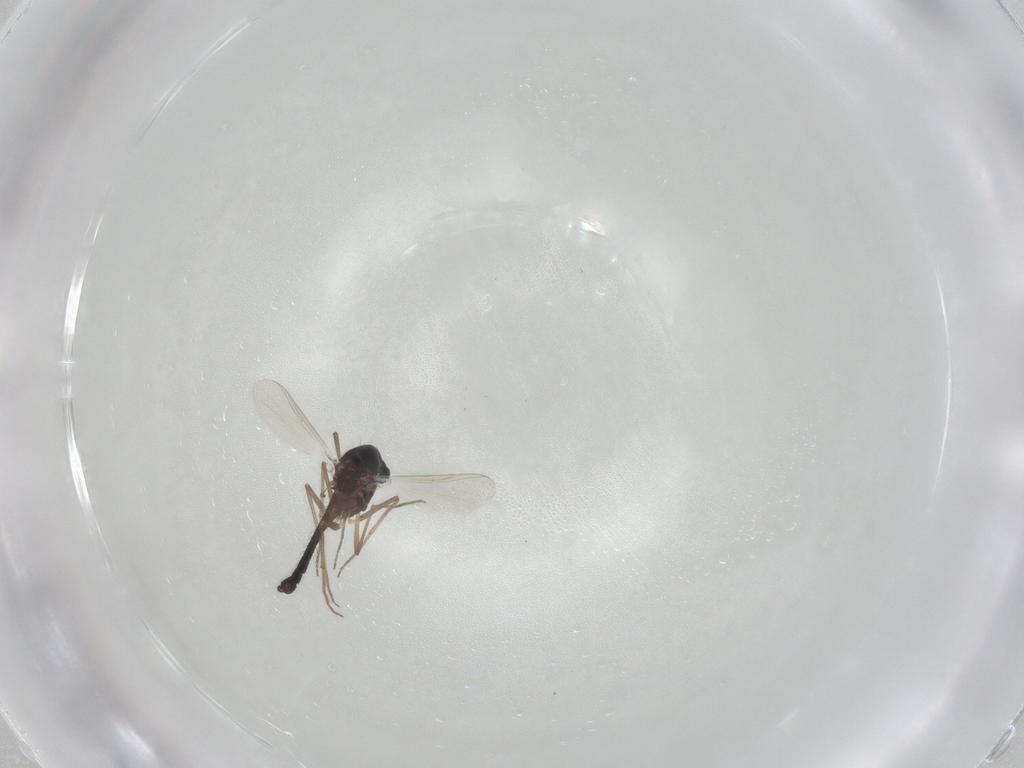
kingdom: Animalia
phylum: Arthropoda
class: Insecta
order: Diptera
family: Chironomidae
